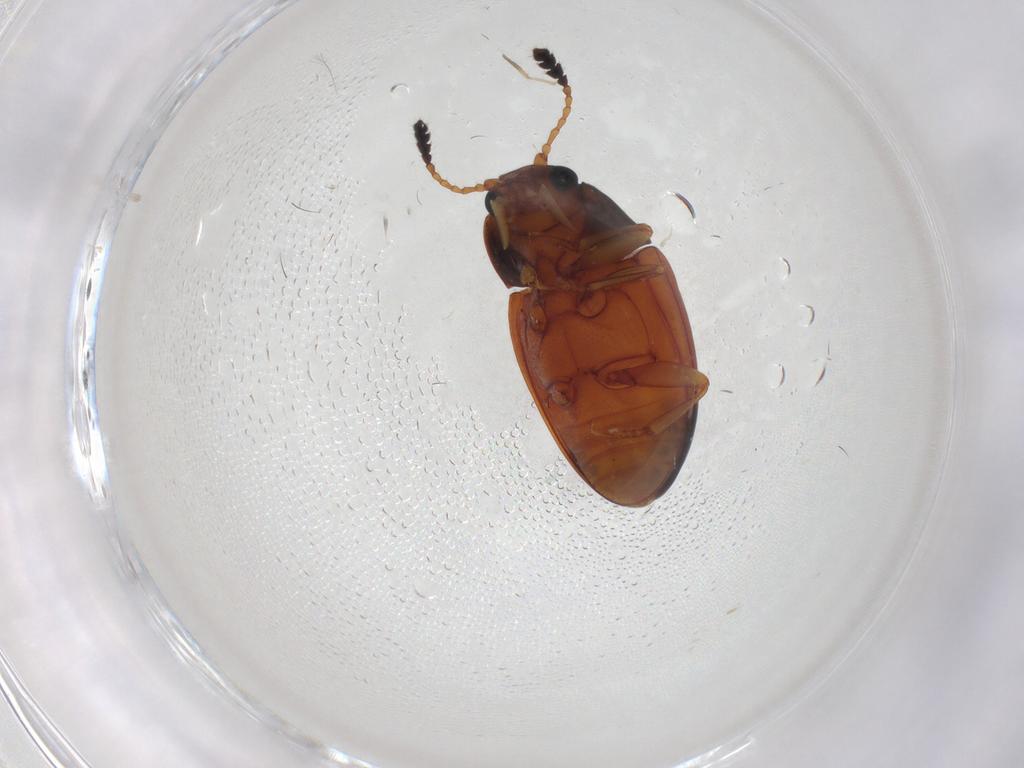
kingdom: Animalia
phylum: Arthropoda
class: Insecta
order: Coleoptera
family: Erotylidae
